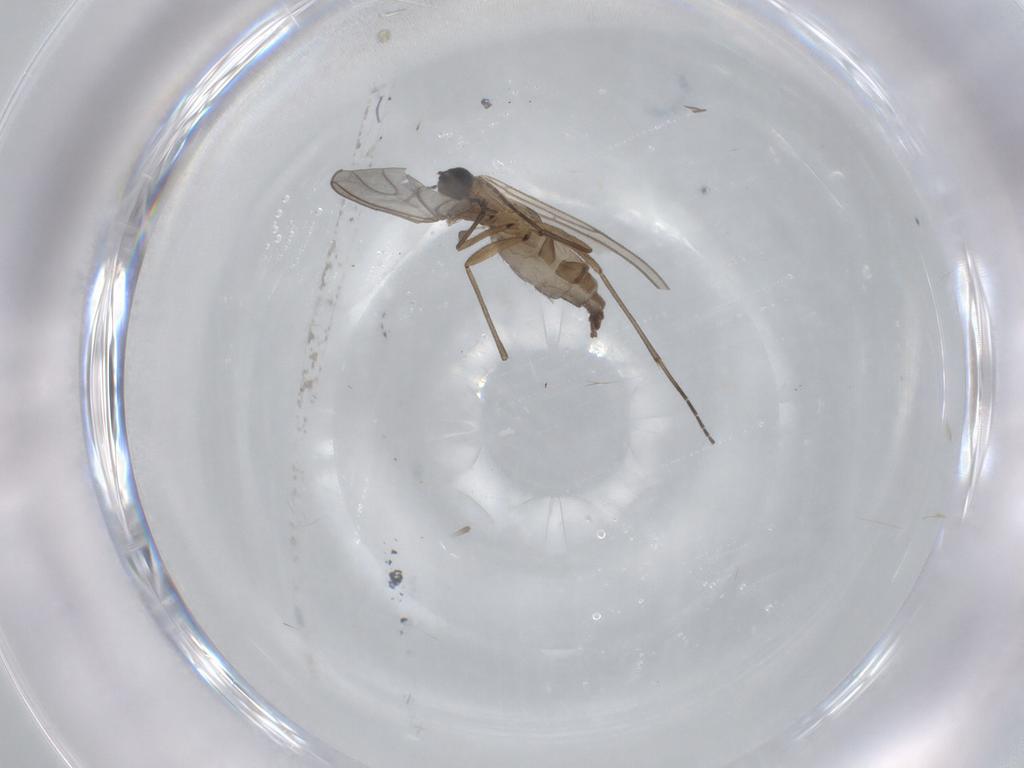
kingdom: Animalia
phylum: Arthropoda
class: Insecta
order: Diptera
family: Sciaridae
